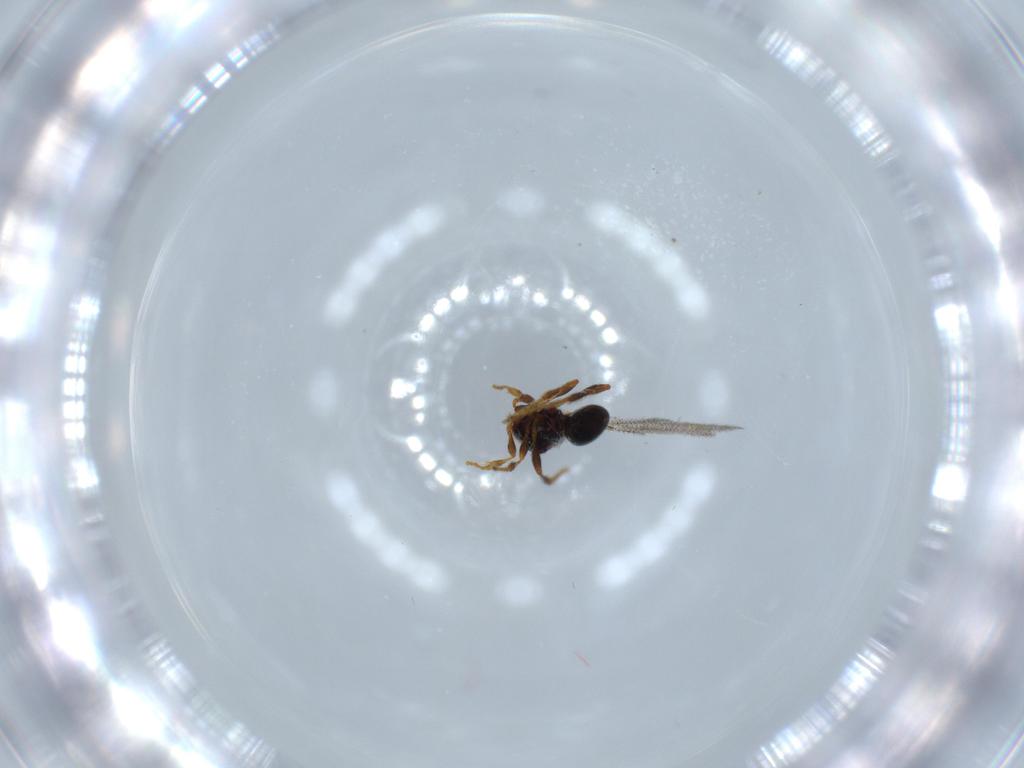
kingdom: Animalia
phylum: Arthropoda
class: Insecta
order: Hymenoptera
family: Diapriidae
